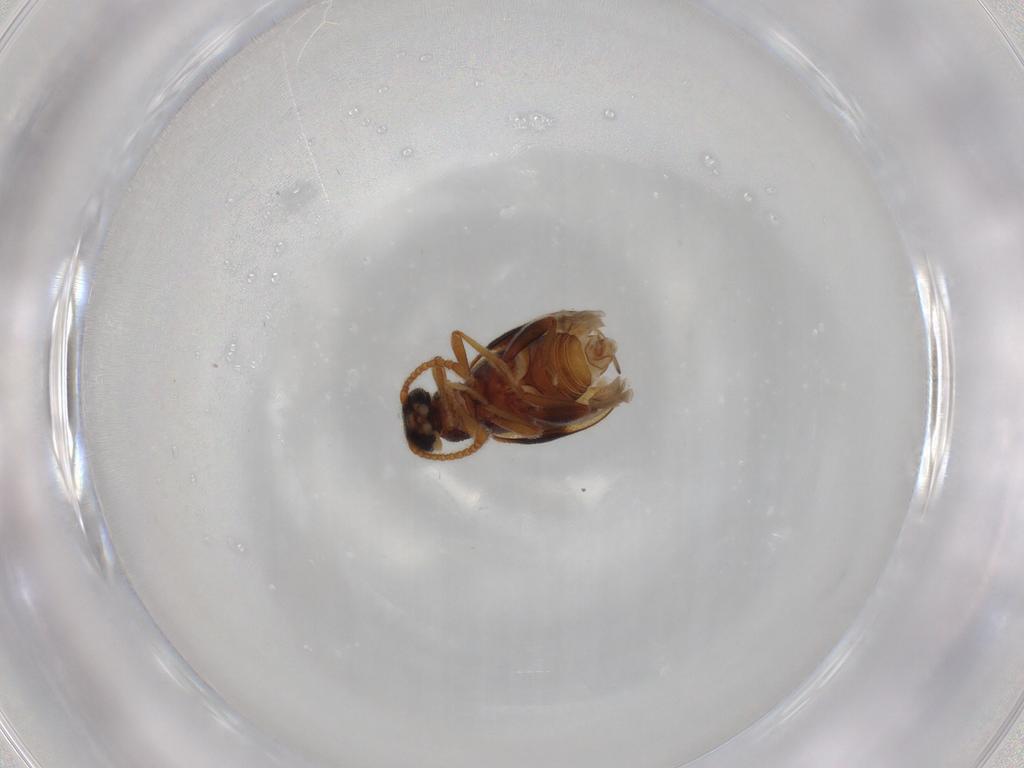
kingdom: Animalia
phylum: Arthropoda
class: Insecta
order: Coleoptera
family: Aderidae
